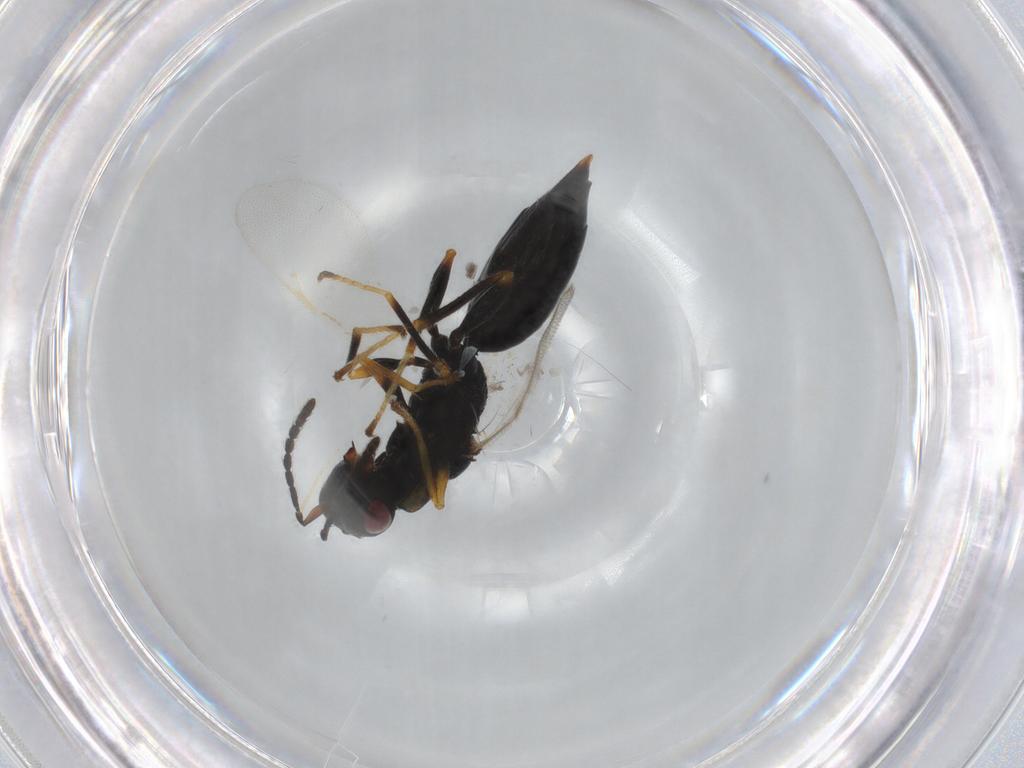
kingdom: Animalia
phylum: Arthropoda
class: Insecta
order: Hymenoptera
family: Eurytomidae
